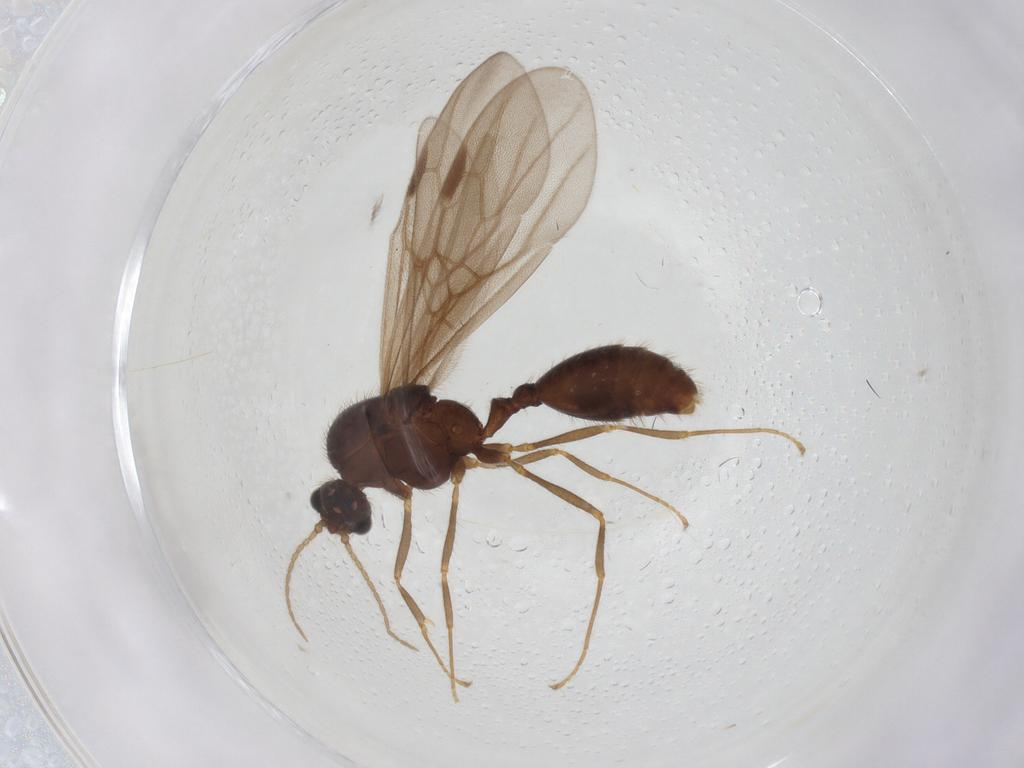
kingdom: Animalia
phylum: Arthropoda
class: Insecta
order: Hymenoptera
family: Formicidae
